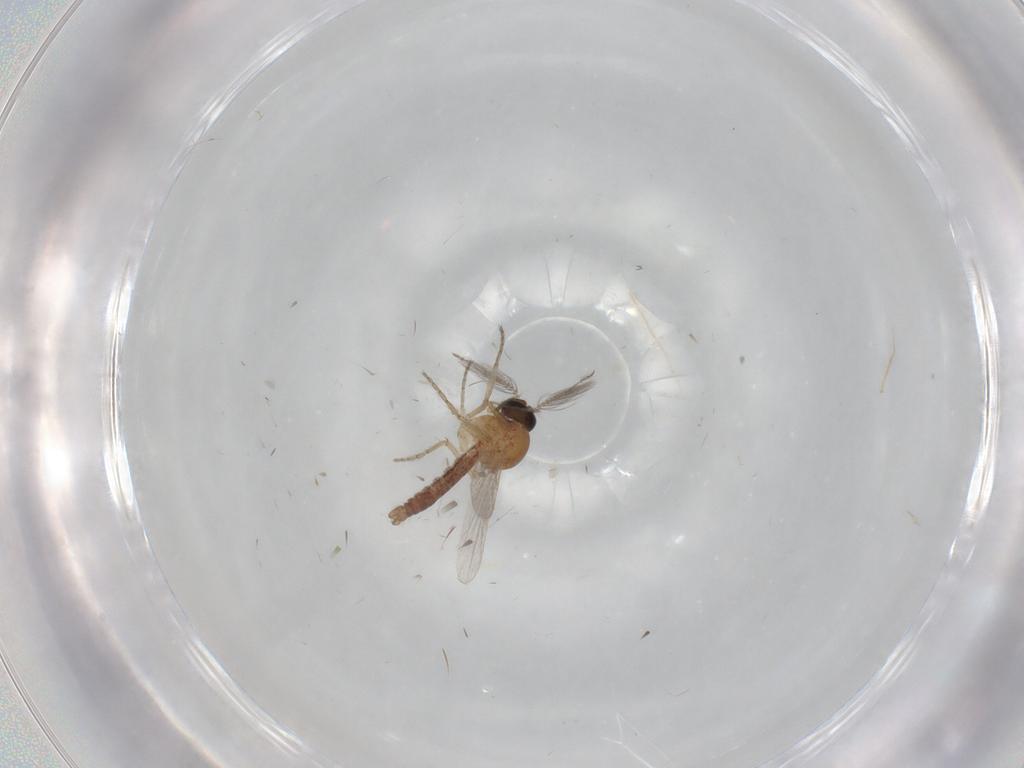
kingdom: Animalia
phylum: Arthropoda
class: Insecta
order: Diptera
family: Ceratopogonidae
